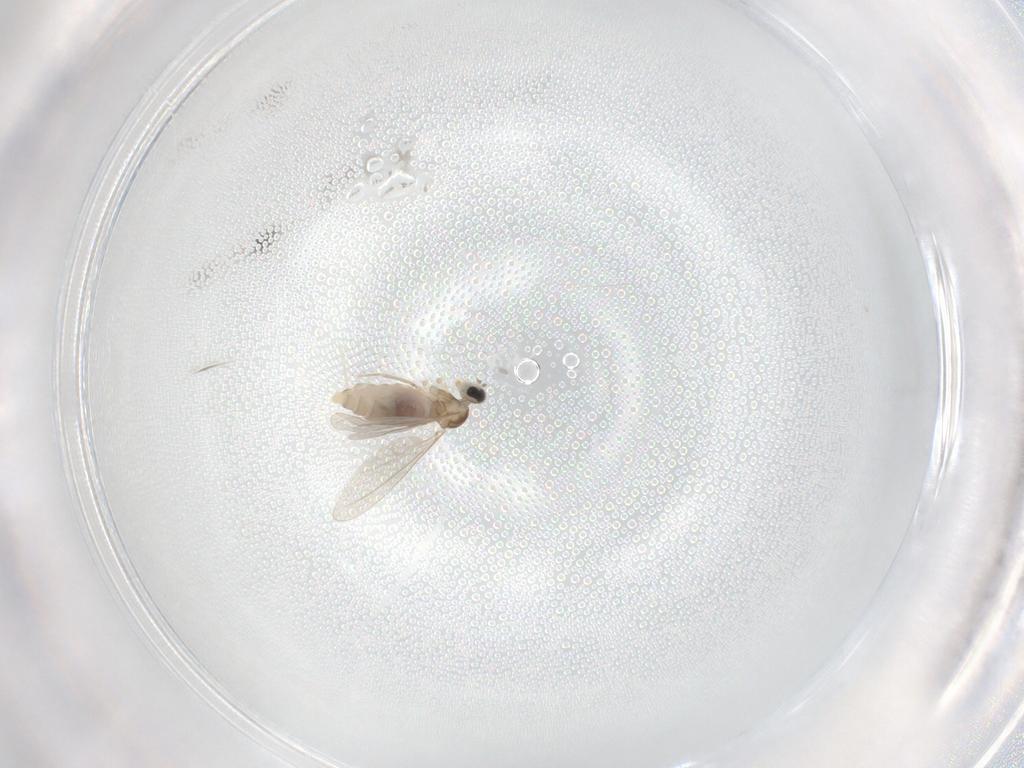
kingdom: Animalia
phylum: Arthropoda
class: Insecta
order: Diptera
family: Cecidomyiidae
